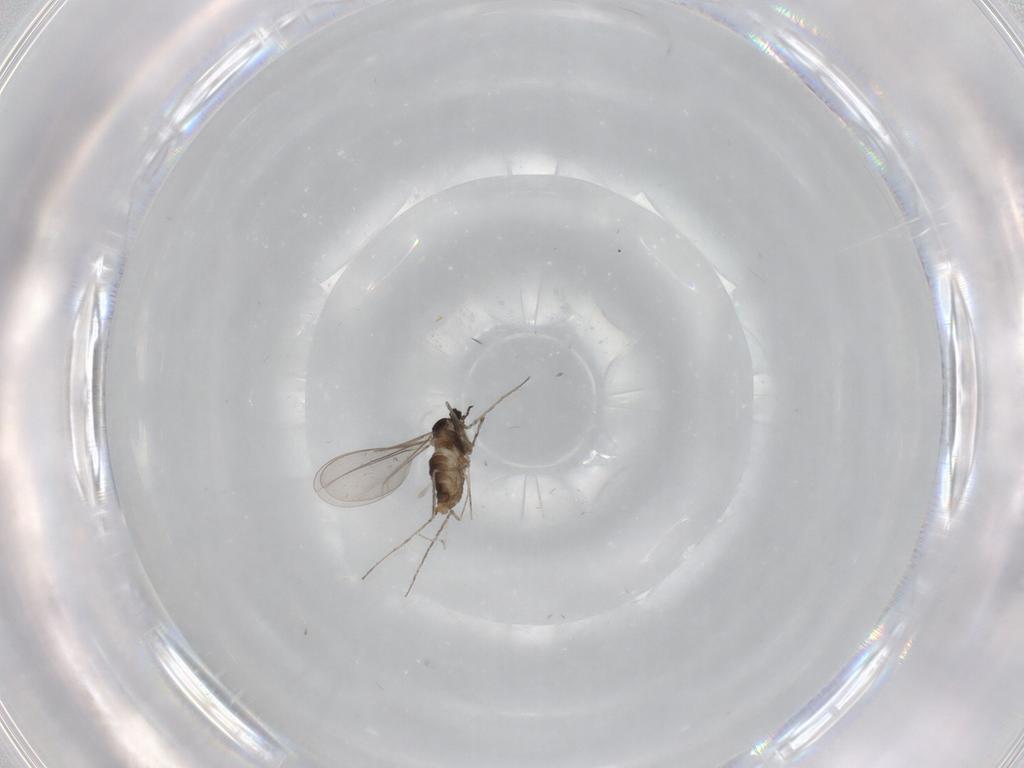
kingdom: Animalia
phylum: Arthropoda
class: Insecta
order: Diptera
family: Cecidomyiidae
